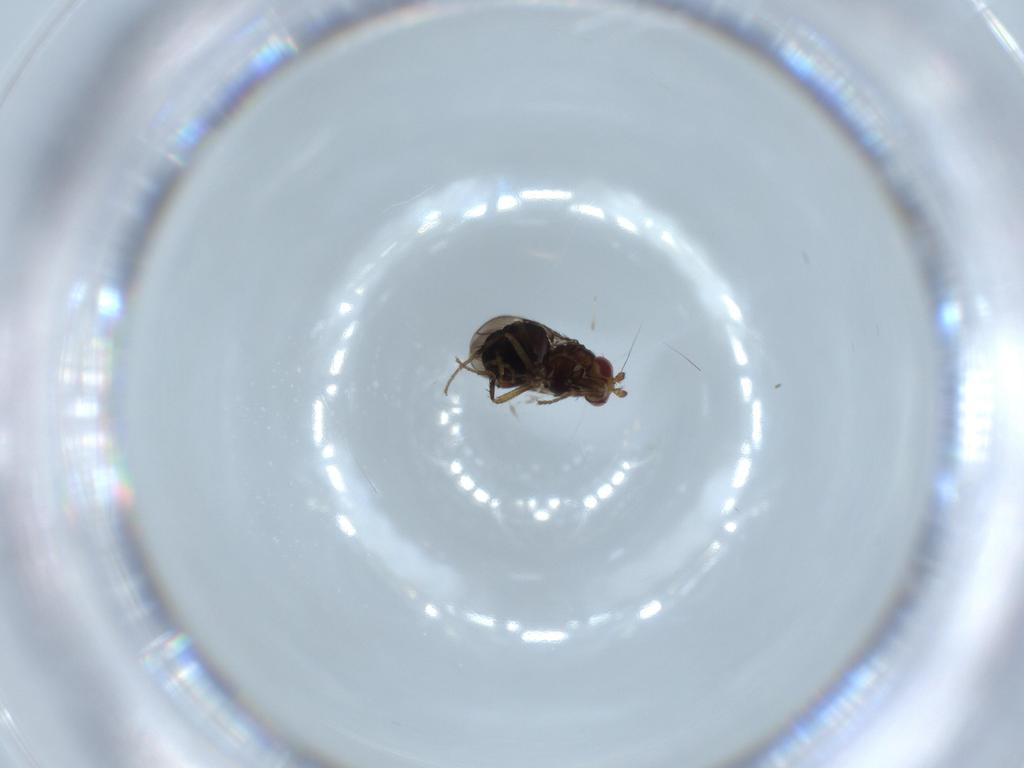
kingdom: Animalia
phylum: Arthropoda
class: Insecta
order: Diptera
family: Sphaeroceridae
